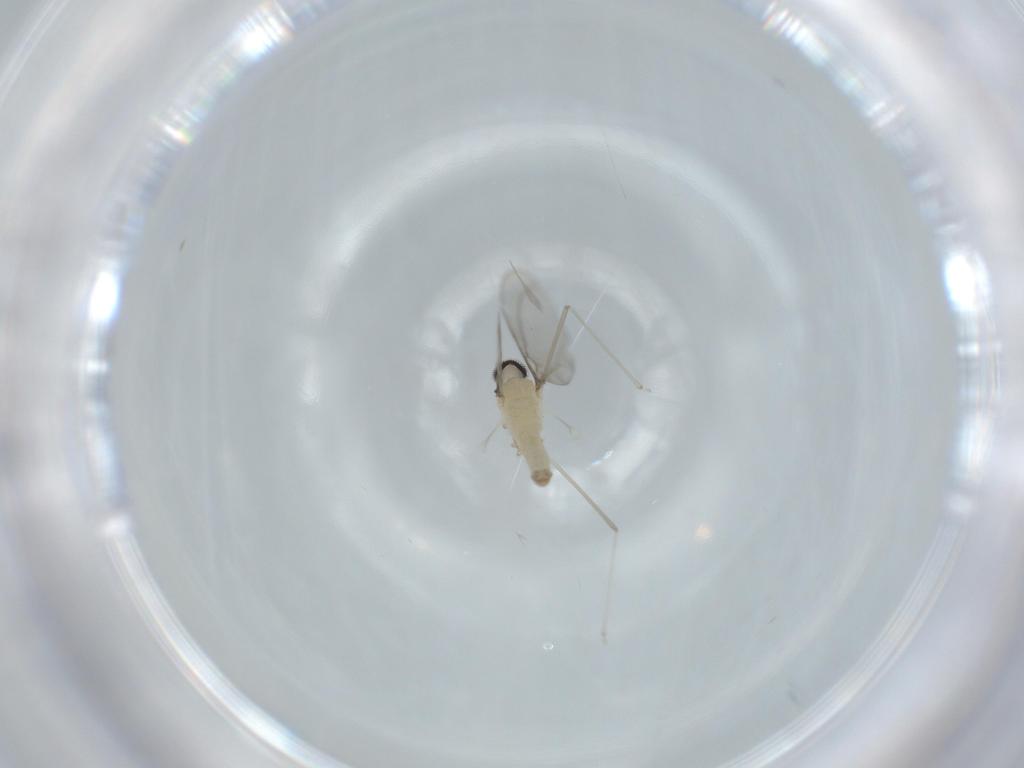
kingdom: Animalia
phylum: Arthropoda
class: Insecta
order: Diptera
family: Cecidomyiidae
